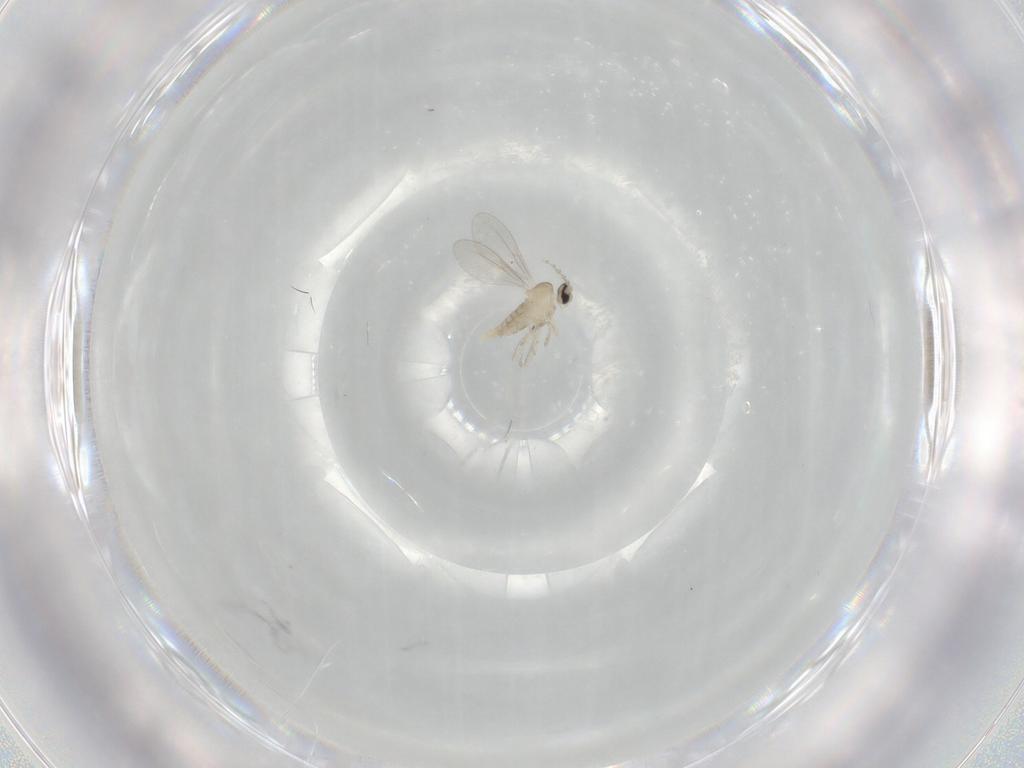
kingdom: Animalia
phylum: Arthropoda
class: Insecta
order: Diptera
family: Cecidomyiidae
